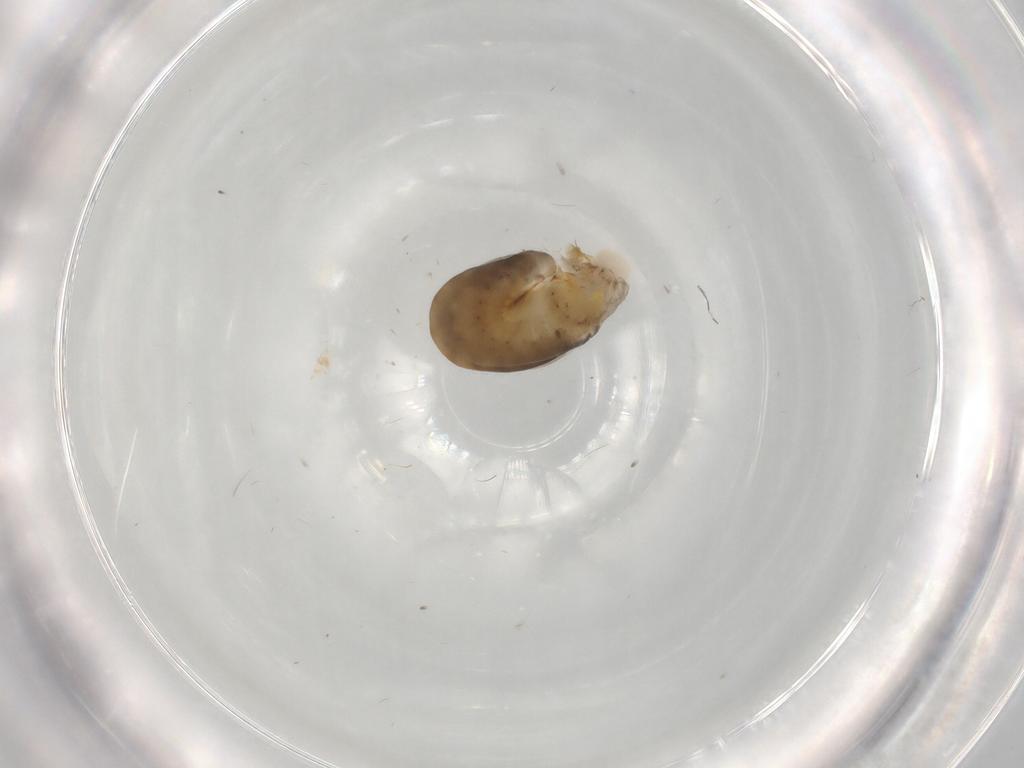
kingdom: Animalia
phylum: Arthropoda
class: Insecta
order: Hymenoptera
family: Dryinidae
